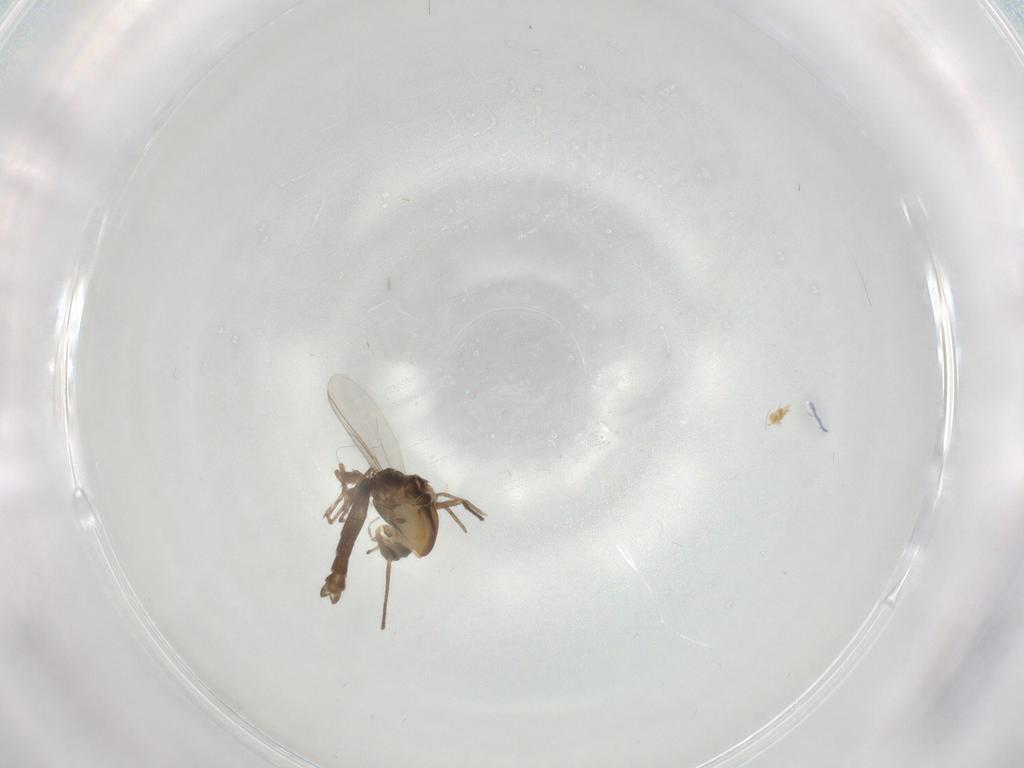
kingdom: Animalia
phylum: Arthropoda
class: Insecta
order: Diptera
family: Chironomidae
